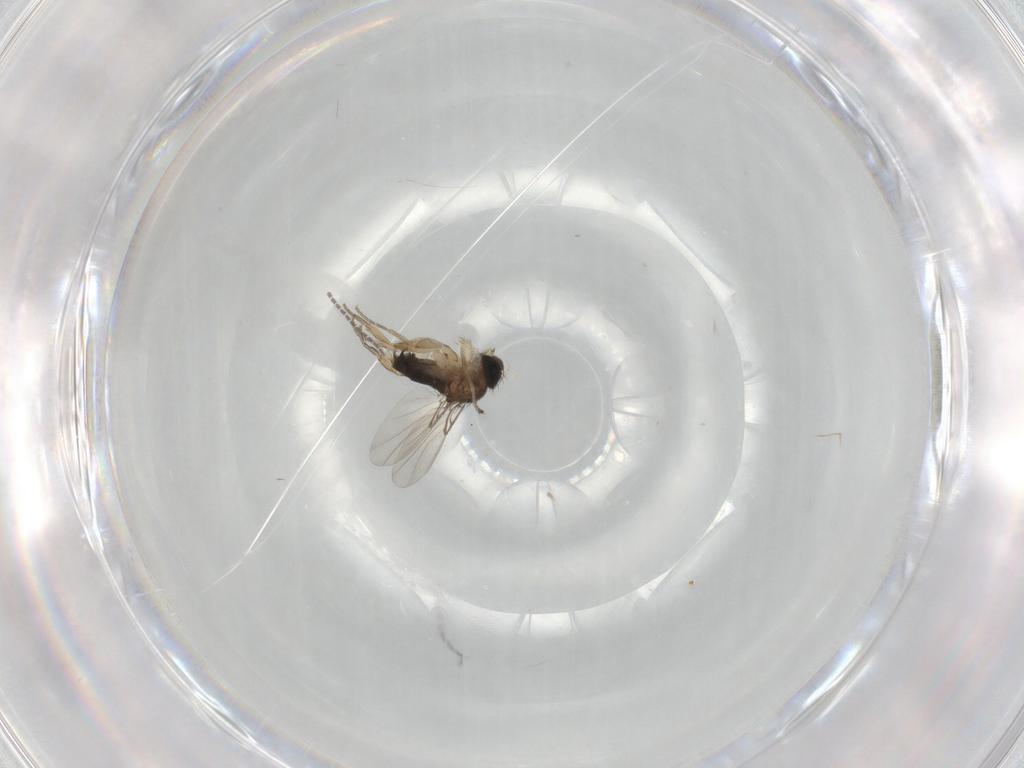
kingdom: Animalia
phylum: Arthropoda
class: Insecta
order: Diptera
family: Phoridae
